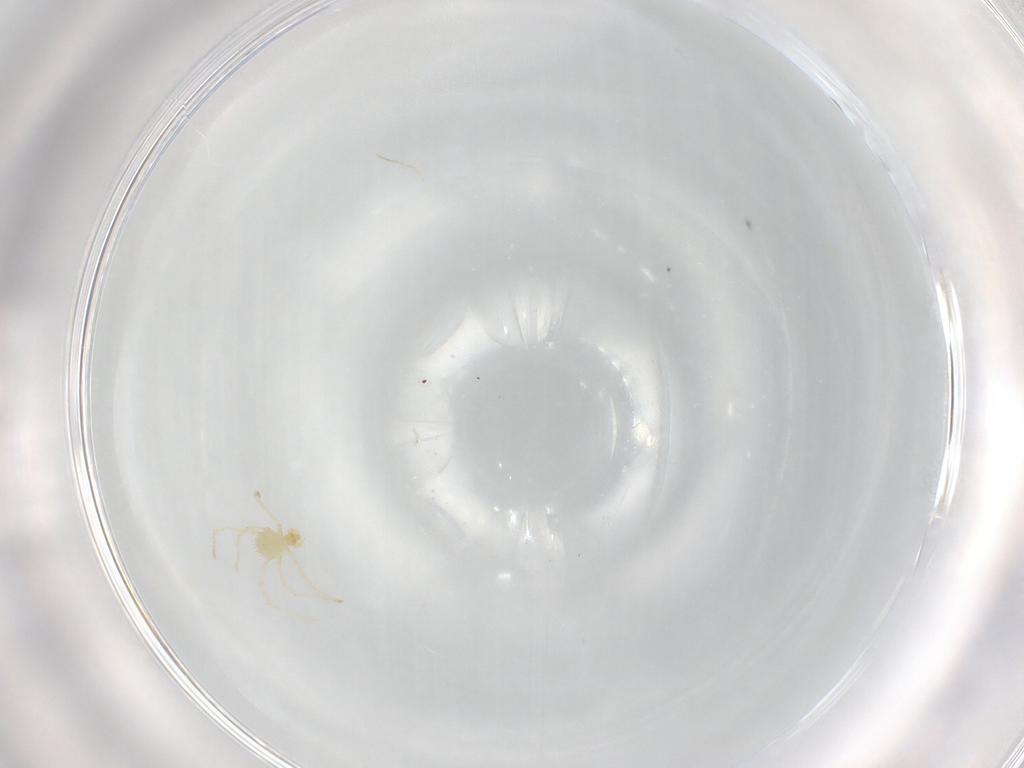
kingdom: Animalia
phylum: Arthropoda
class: Arachnida
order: Trombidiformes
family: Erythraeidae
